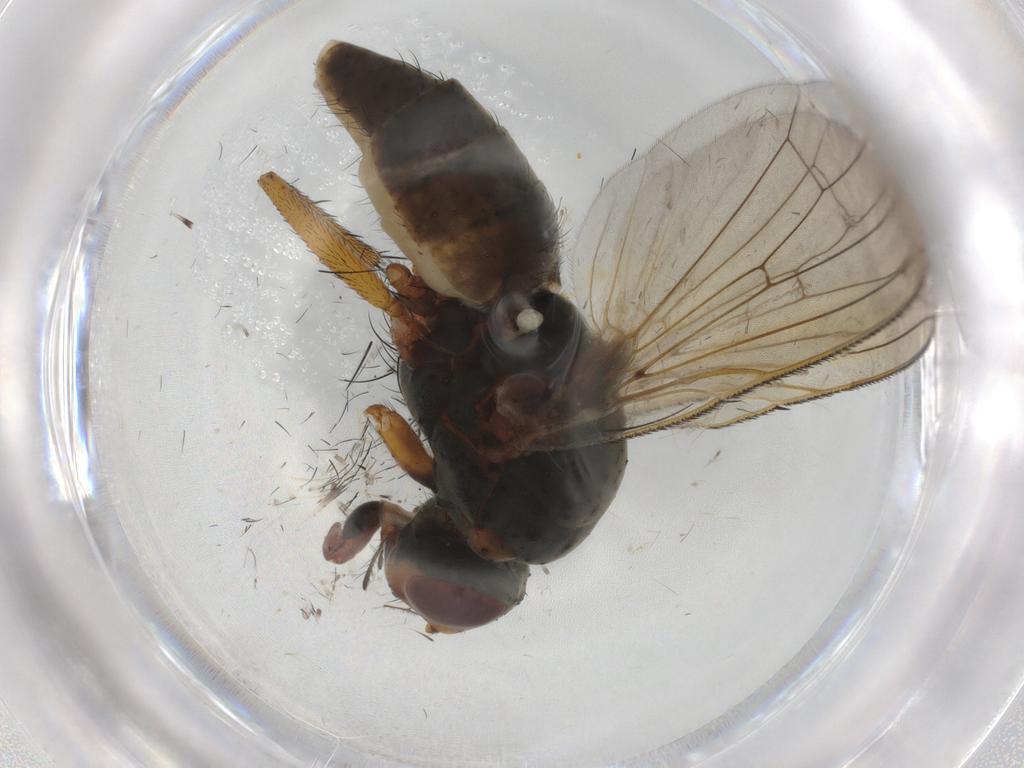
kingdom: Animalia
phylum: Arthropoda
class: Insecta
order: Diptera
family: Anthomyiidae
